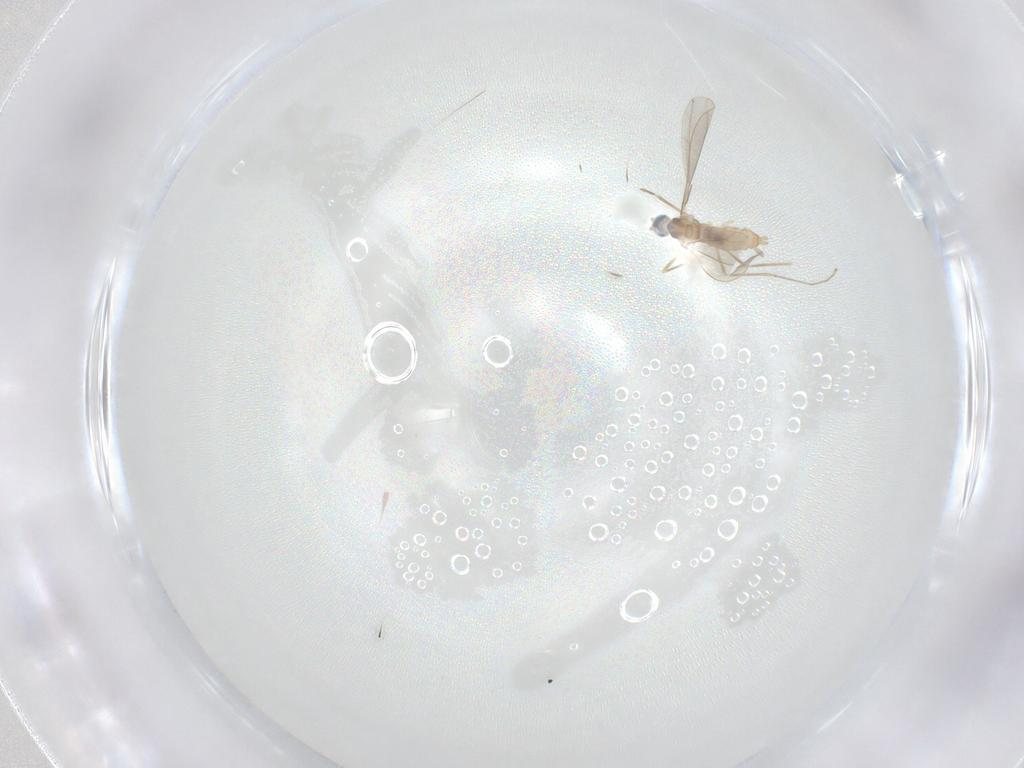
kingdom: Animalia
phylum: Arthropoda
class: Insecta
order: Diptera
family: Cecidomyiidae
